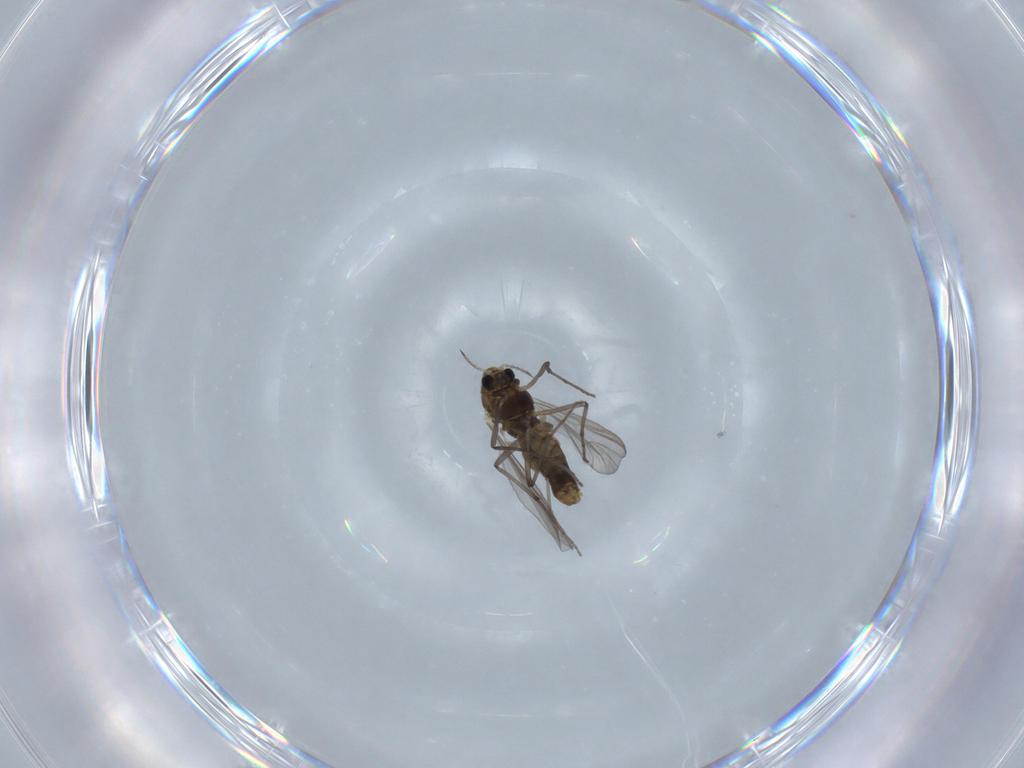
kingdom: Animalia
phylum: Arthropoda
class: Insecta
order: Diptera
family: Chironomidae
